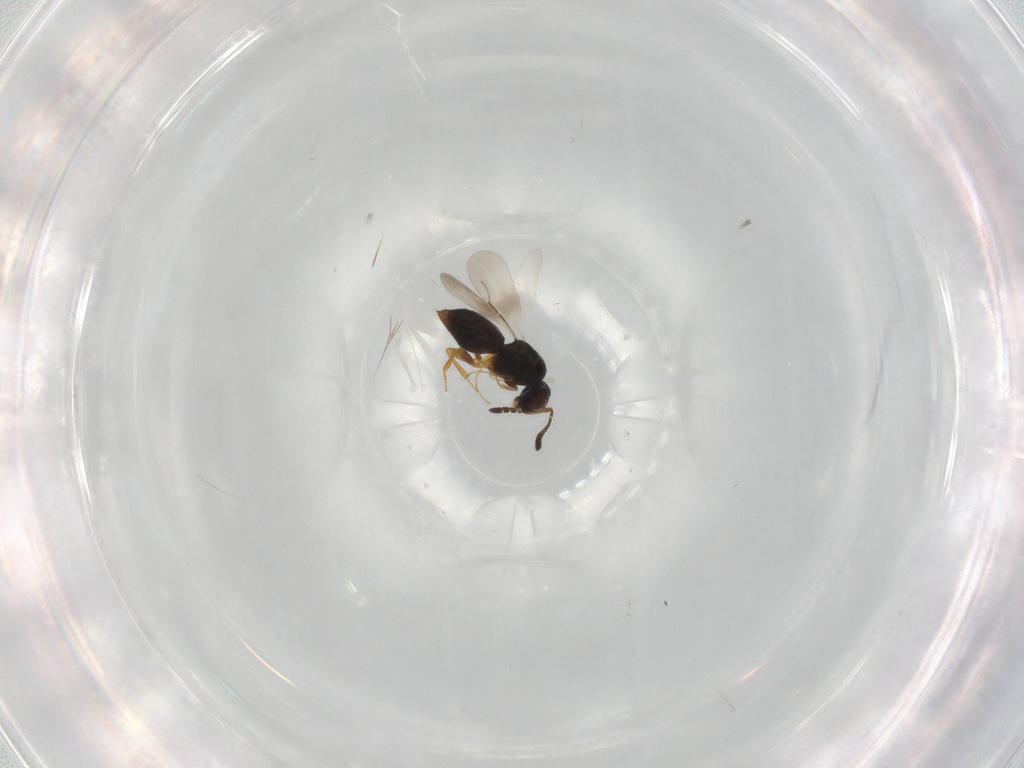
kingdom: Animalia
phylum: Arthropoda
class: Insecta
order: Hymenoptera
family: Ceraphronidae
